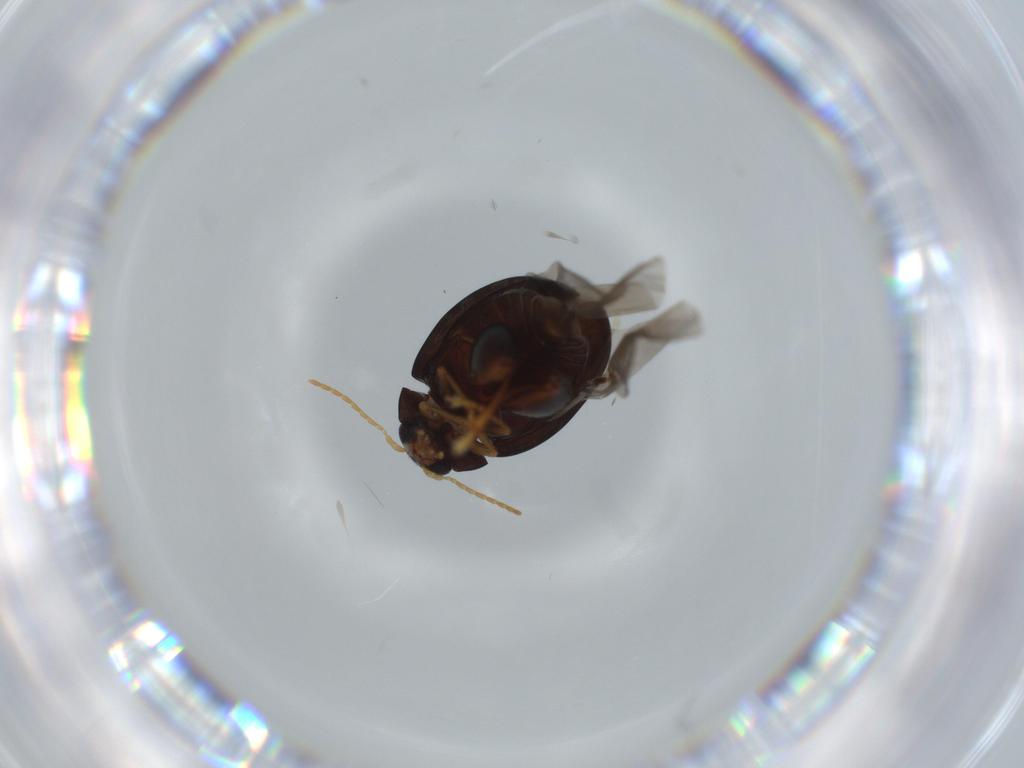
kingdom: Animalia
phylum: Arthropoda
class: Insecta
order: Coleoptera
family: Chrysomelidae
